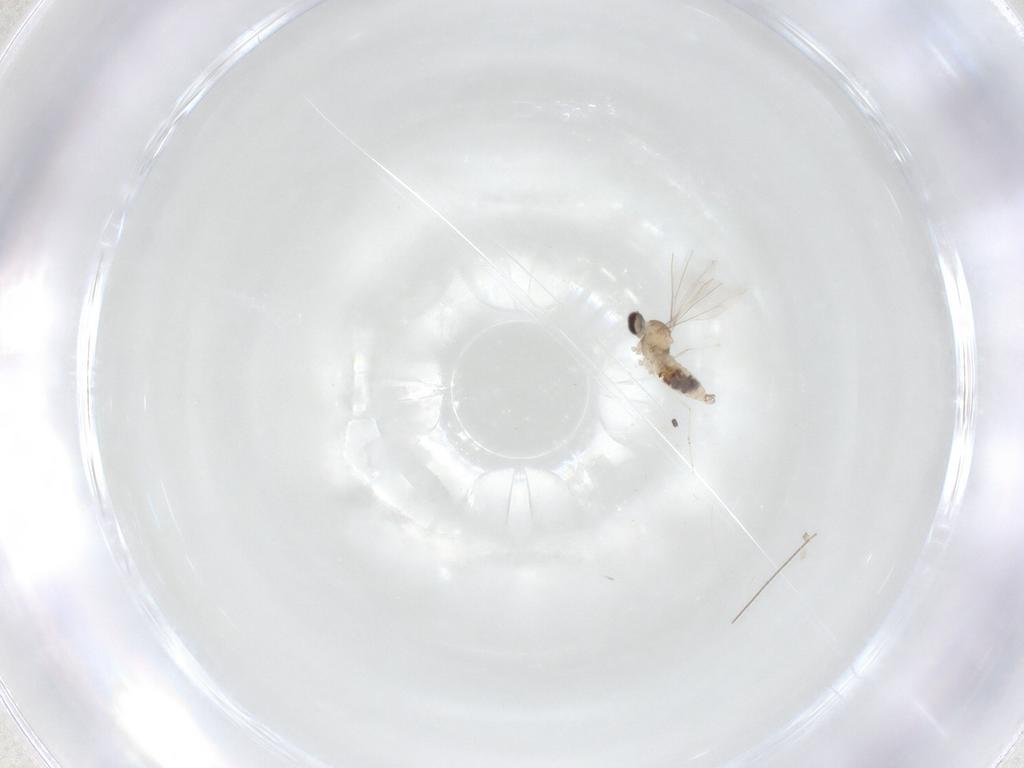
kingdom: Animalia
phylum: Arthropoda
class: Insecta
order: Diptera
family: Cecidomyiidae
